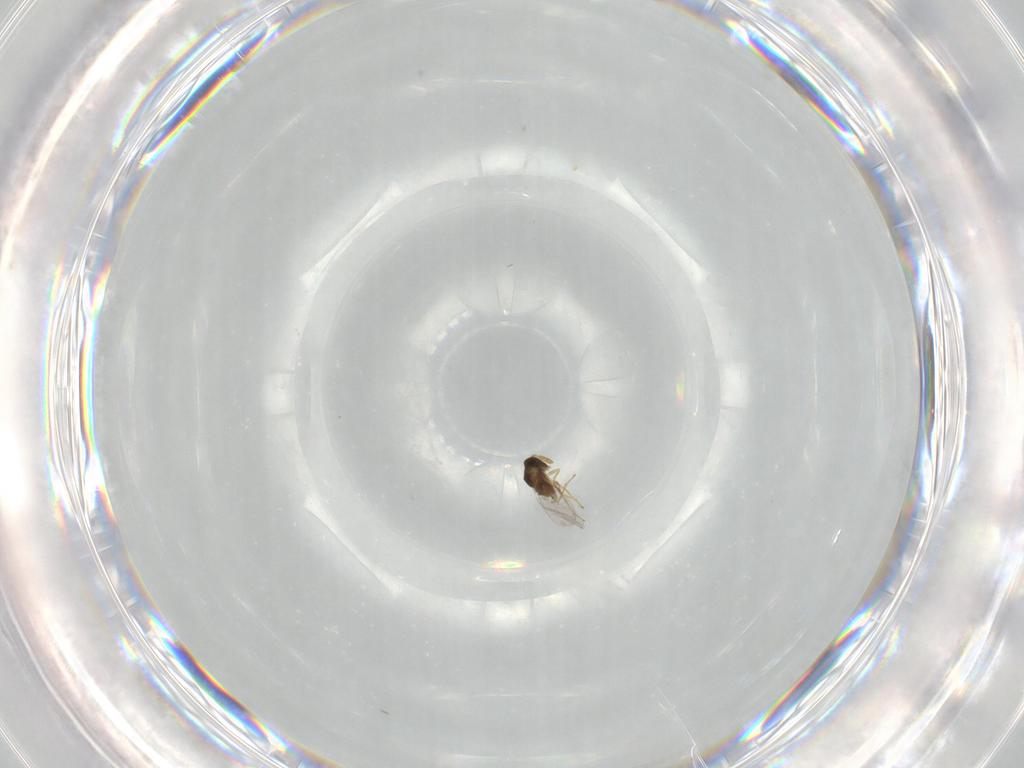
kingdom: Animalia
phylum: Arthropoda
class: Insecta
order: Hymenoptera
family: Encyrtidae
